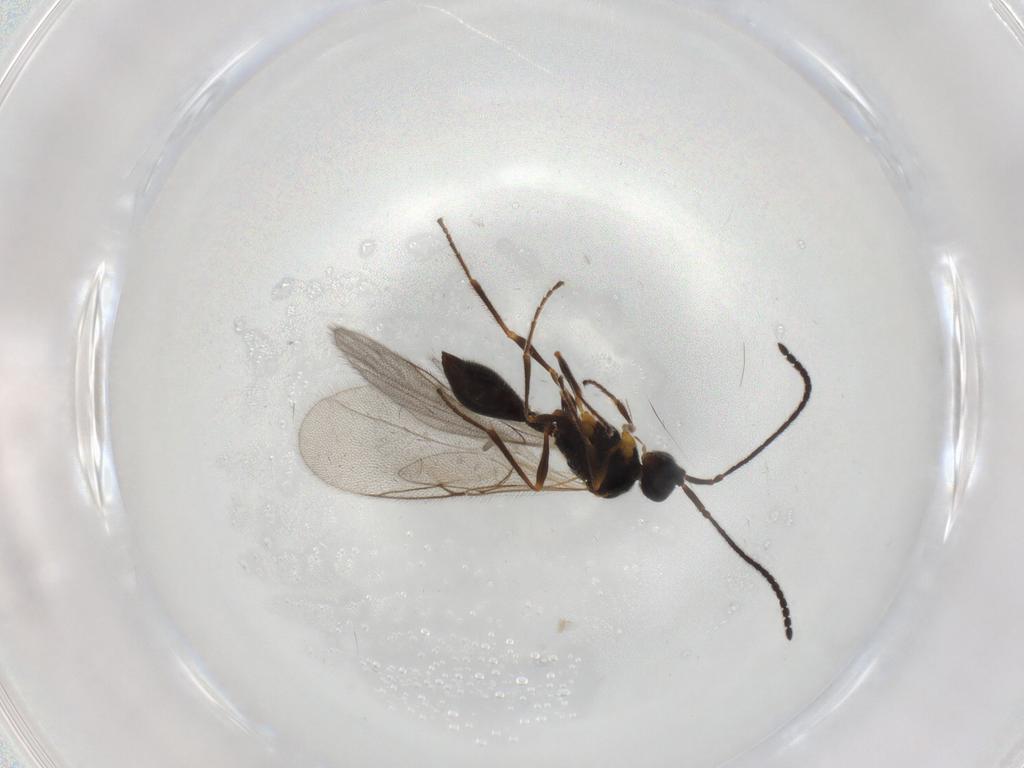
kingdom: Animalia
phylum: Arthropoda
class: Insecta
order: Hymenoptera
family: Diapriidae
